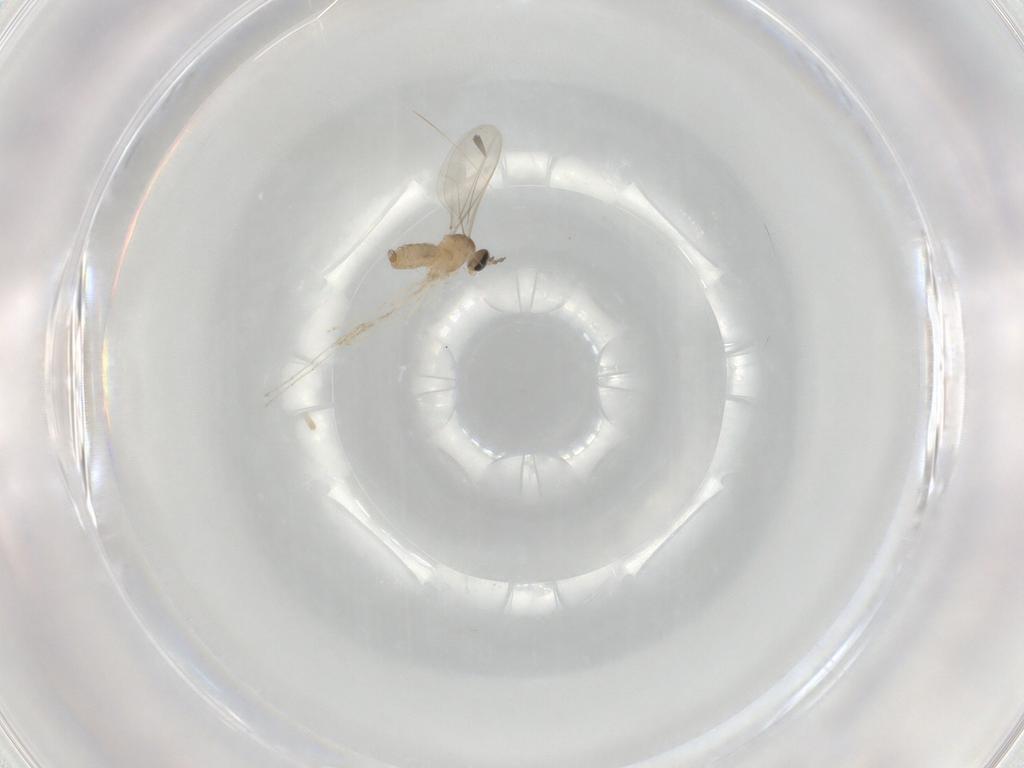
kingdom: Animalia
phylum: Arthropoda
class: Insecta
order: Diptera
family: Cecidomyiidae
